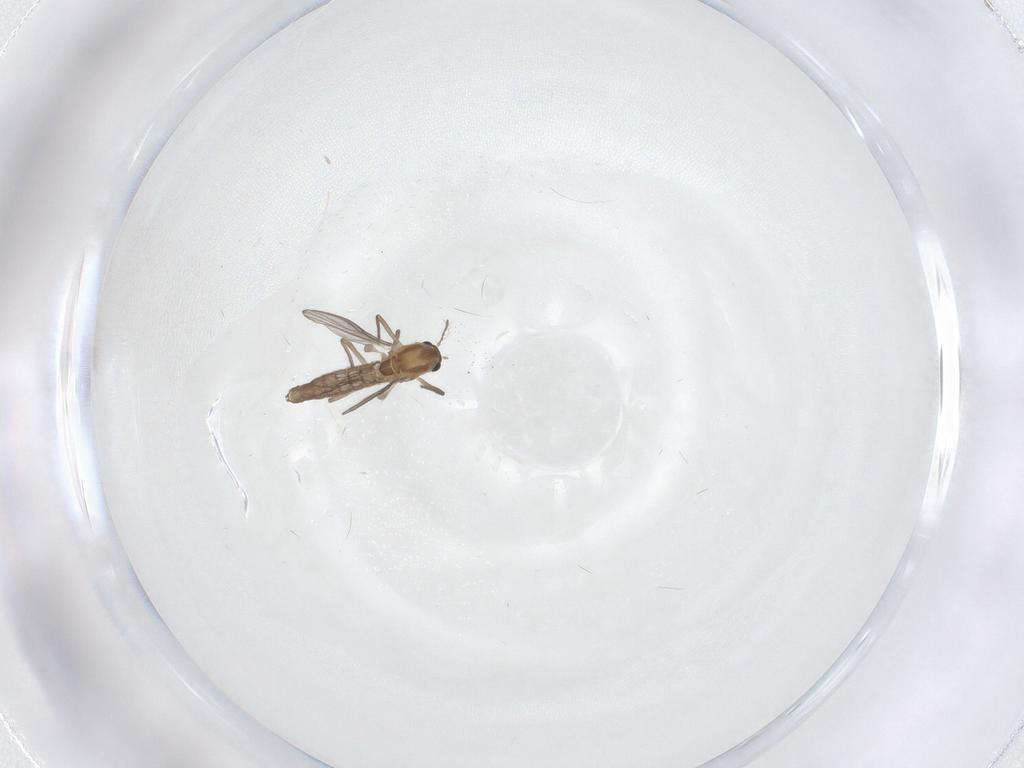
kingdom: Animalia
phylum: Arthropoda
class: Insecta
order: Diptera
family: Chironomidae
